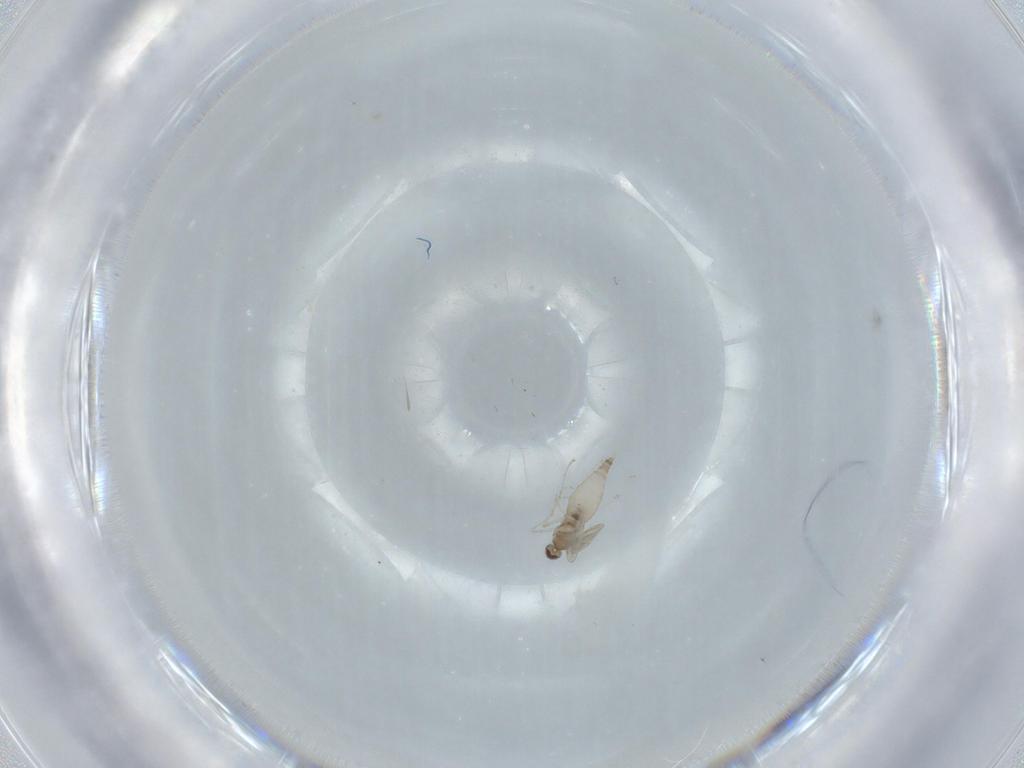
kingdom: Animalia
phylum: Arthropoda
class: Insecta
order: Diptera
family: Cecidomyiidae
